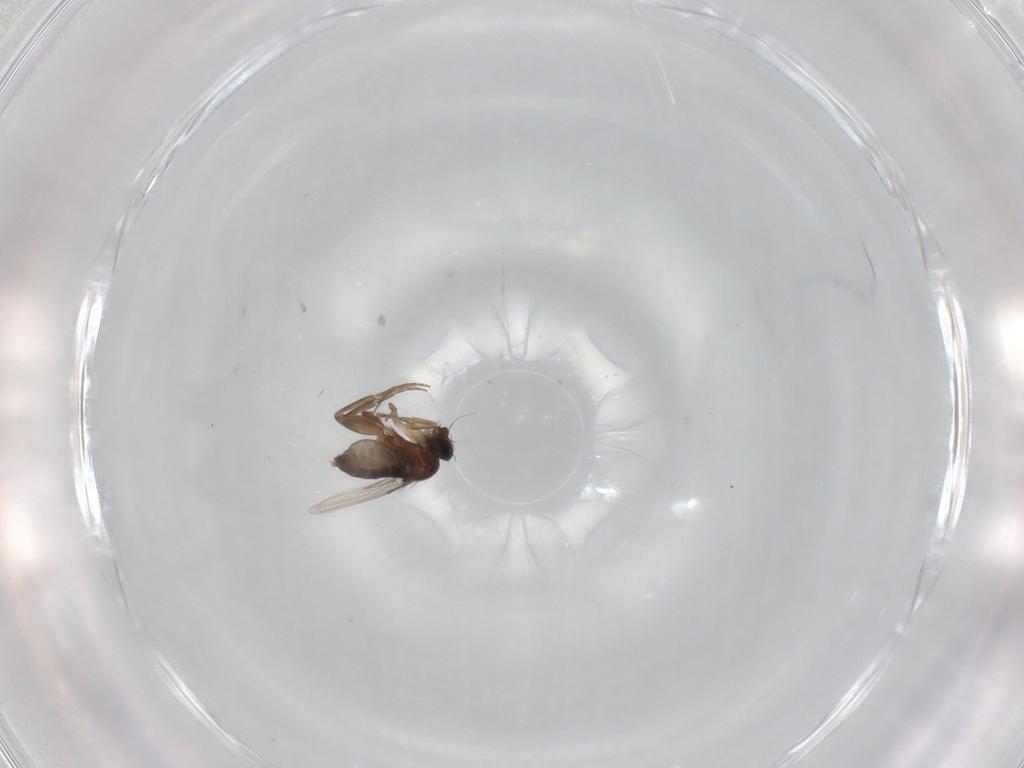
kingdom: Animalia
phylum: Arthropoda
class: Insecta
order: Diptera
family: Phoridae
